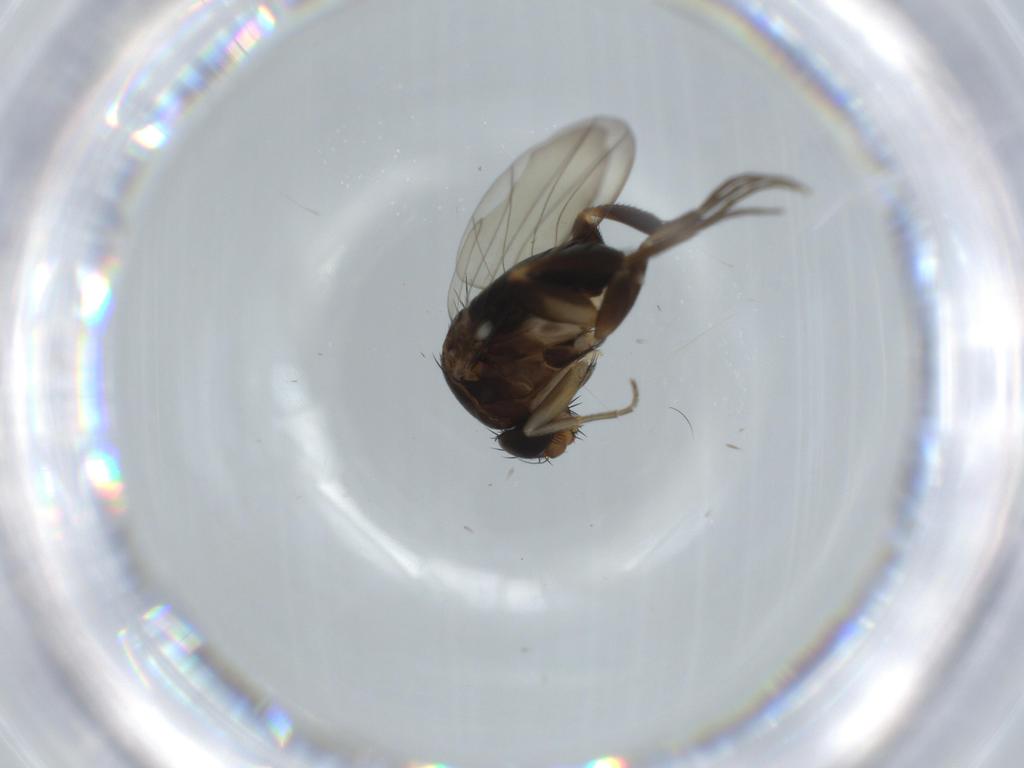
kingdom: Animalia
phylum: Arthropoda
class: Insecta
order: Diptera
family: Phoridae
